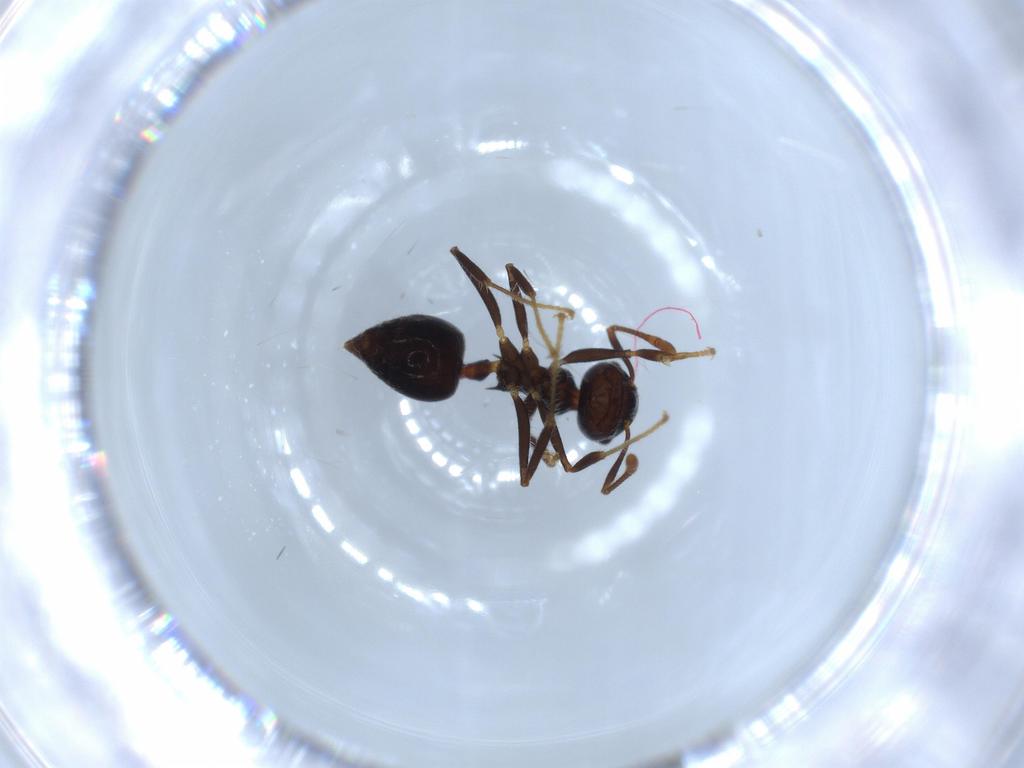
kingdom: Animalia
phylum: Arthropoda
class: Insecta
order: Hymenoptera
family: Formicidae
